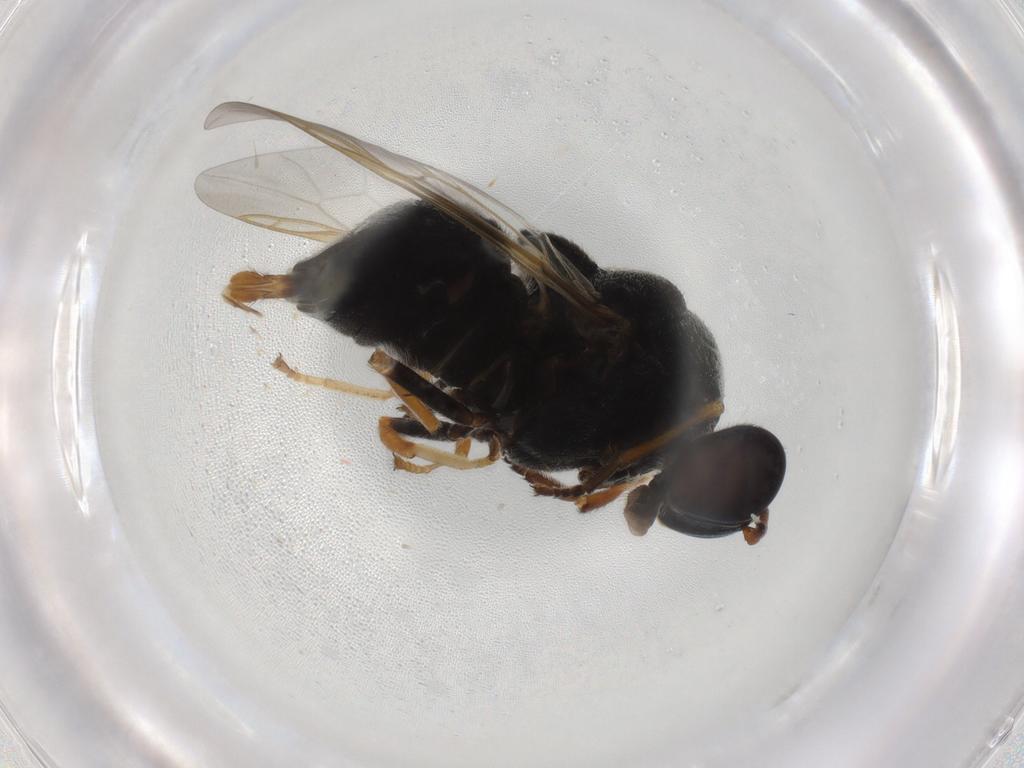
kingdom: Animalia
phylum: Arthropoda
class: Insecta
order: Diptera
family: Stratiomyidae
